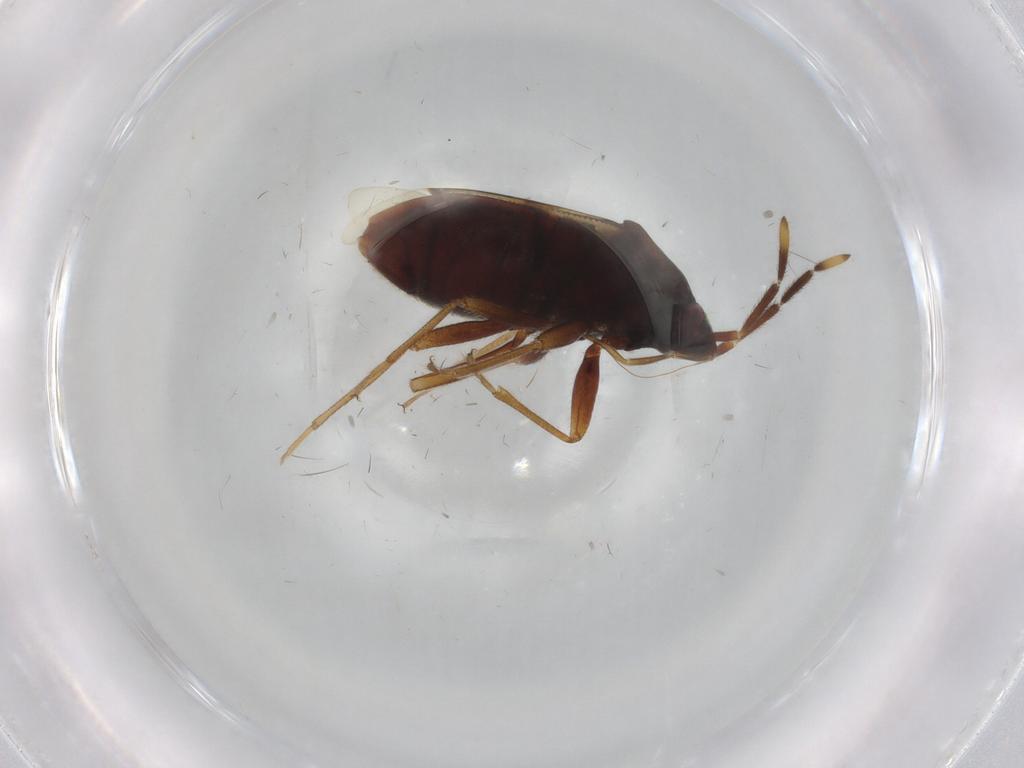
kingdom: Animalia
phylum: Arthropoda
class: Insecta
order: Hemiptera
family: Rhyparochromidae
